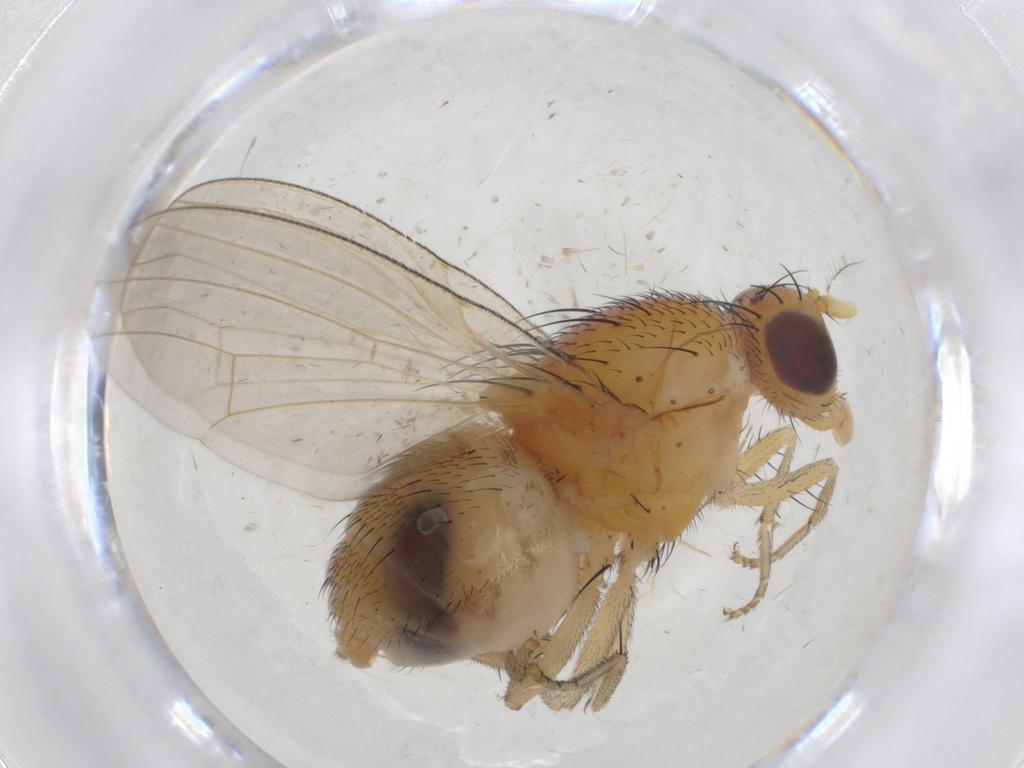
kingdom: Animalia
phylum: Arthropoda
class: Insecta
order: Diptera
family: Cecidomyiidae
